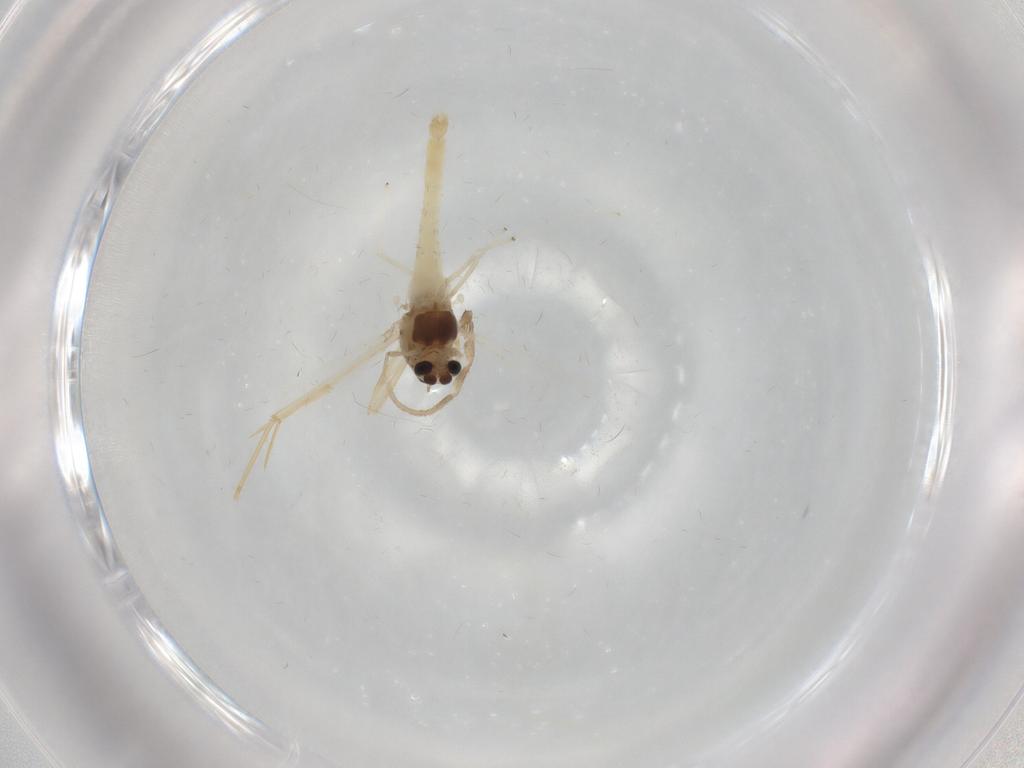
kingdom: Animalia
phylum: Arthropoda
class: Insecta
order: Diptera
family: Chironomidae
